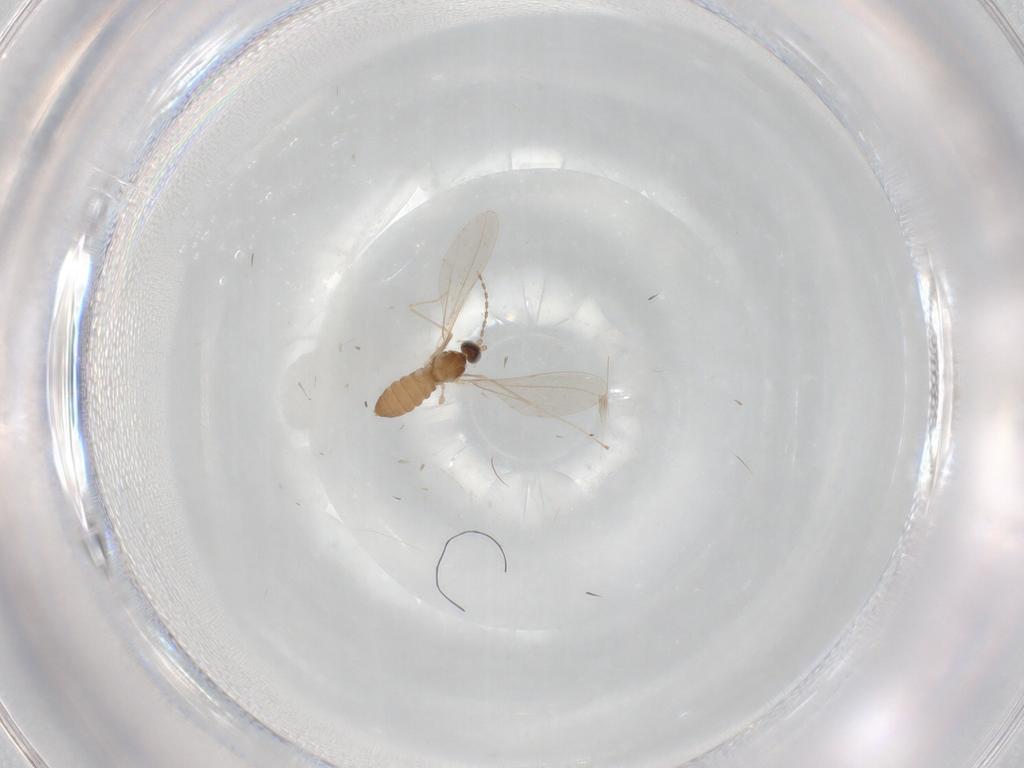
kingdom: Animalia
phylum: Arthropoda
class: Insecta
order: Diptera
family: Cecidomyiidae
